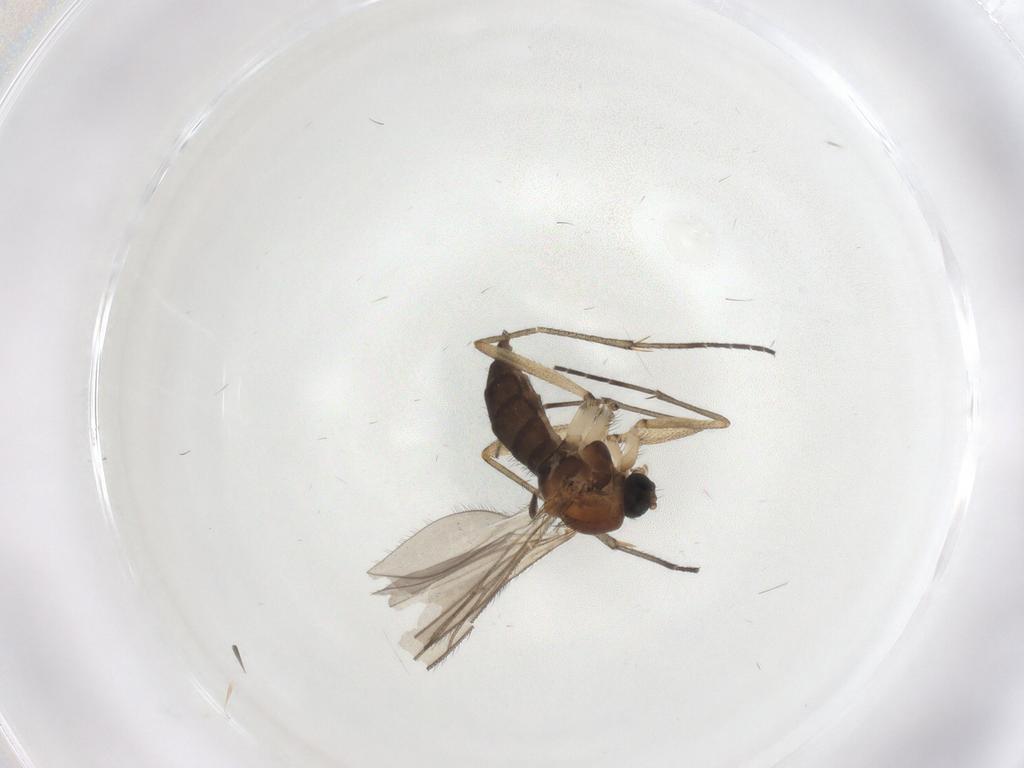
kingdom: Animalia
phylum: Arthropoda
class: Insecta
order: Diptera
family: Sciaridae
